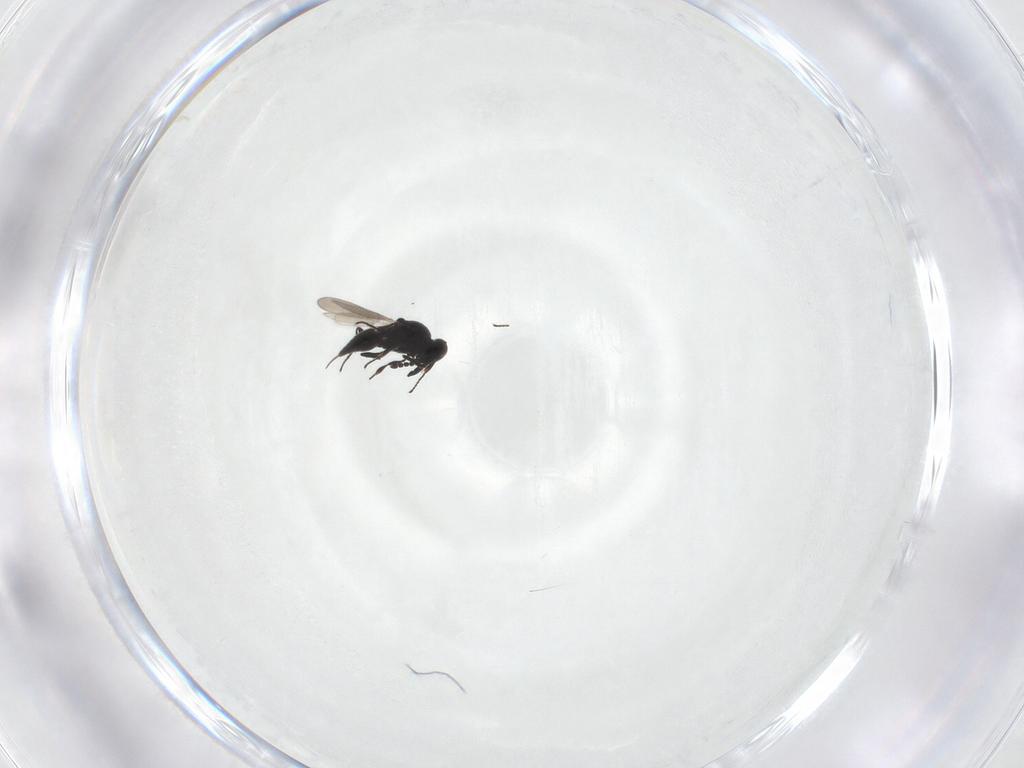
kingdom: Animalia
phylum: Arthropoda
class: Insecta
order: Hymenoptera
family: Platygastridae
